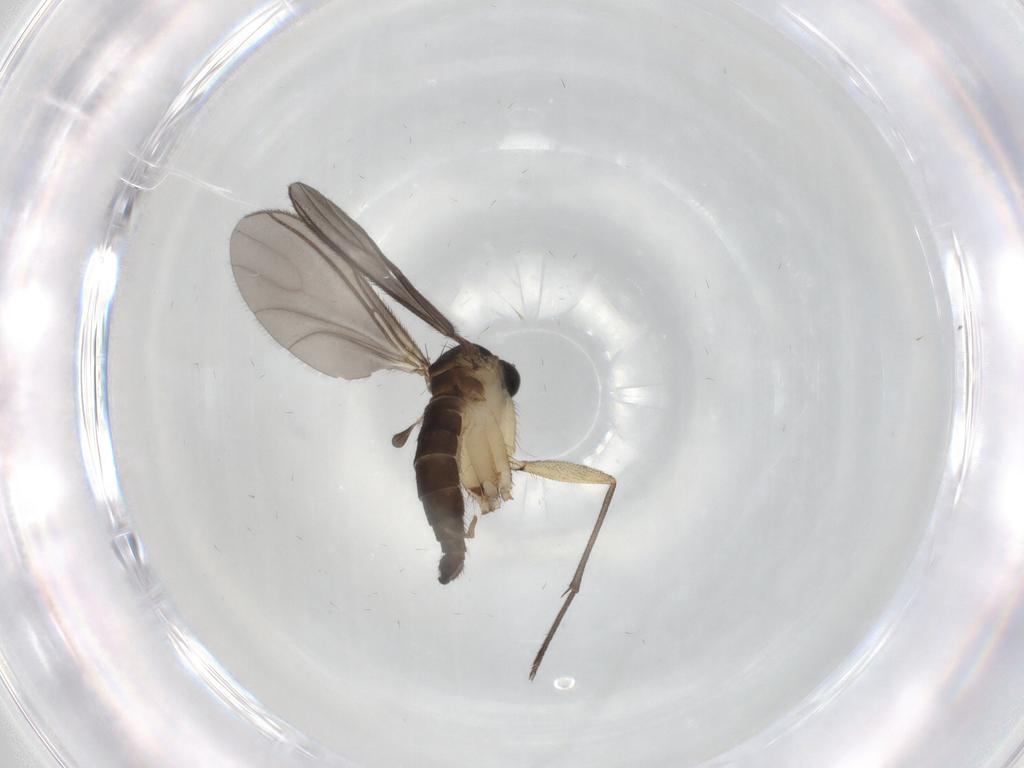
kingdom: Animalia
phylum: Arthropoda
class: Insecta
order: Diptera
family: Sciaridae
